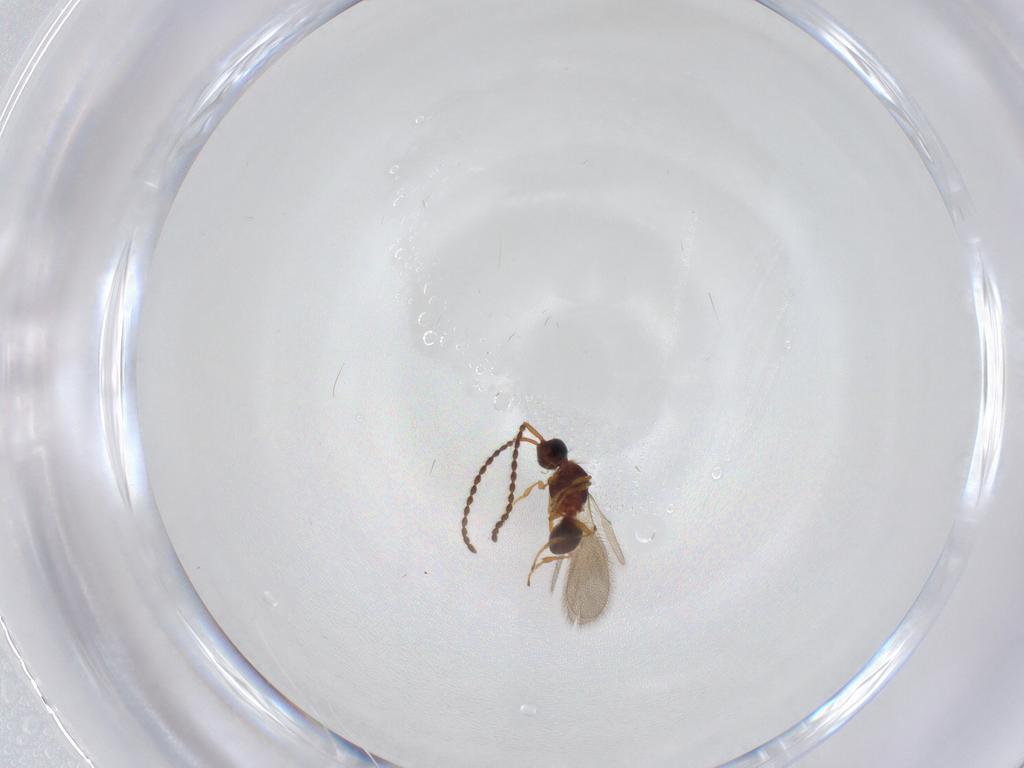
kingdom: Animalia
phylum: Arthropoda
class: Insecta
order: Hymenoptera
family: Diapriidae
